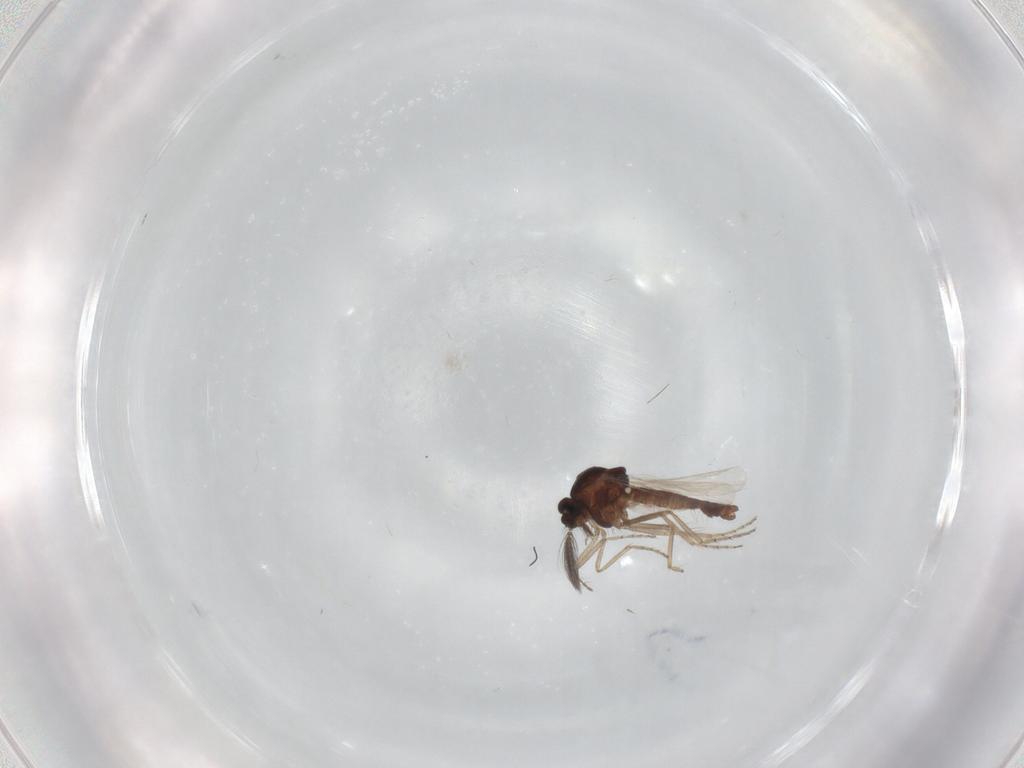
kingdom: Animalia
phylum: Arthropoda
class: Insecta
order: Diptera
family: Ceratopogonidae
